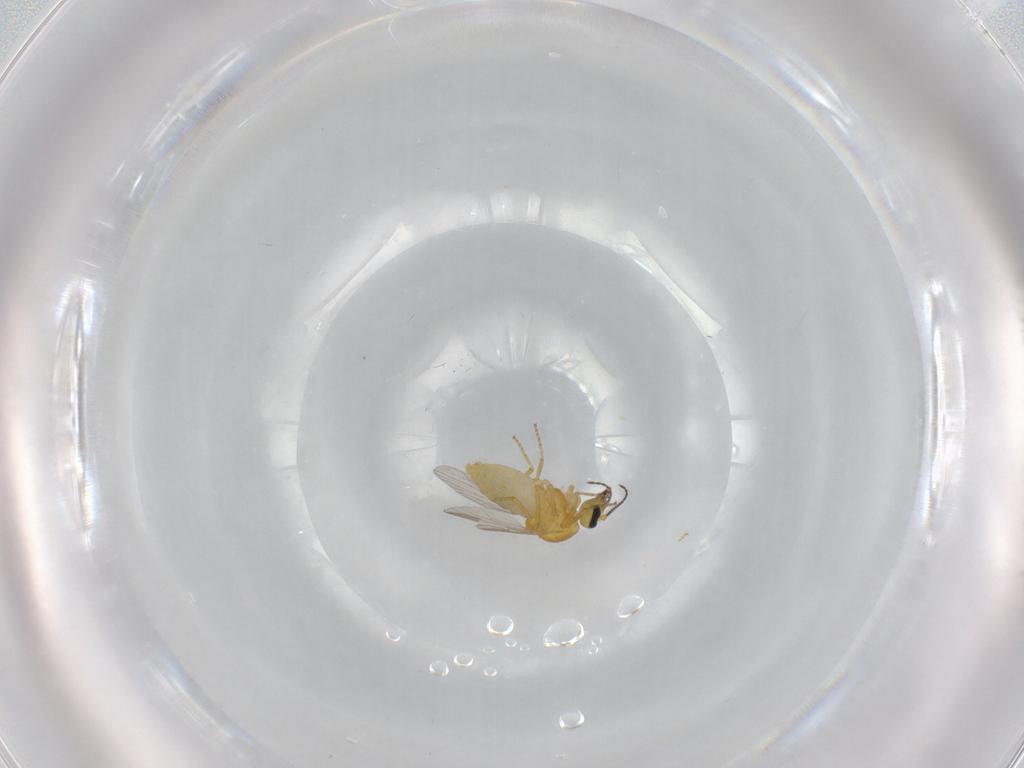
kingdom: Animalia
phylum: Arthropoda
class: Insecta
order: Diptera
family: Ceratopogonidae
